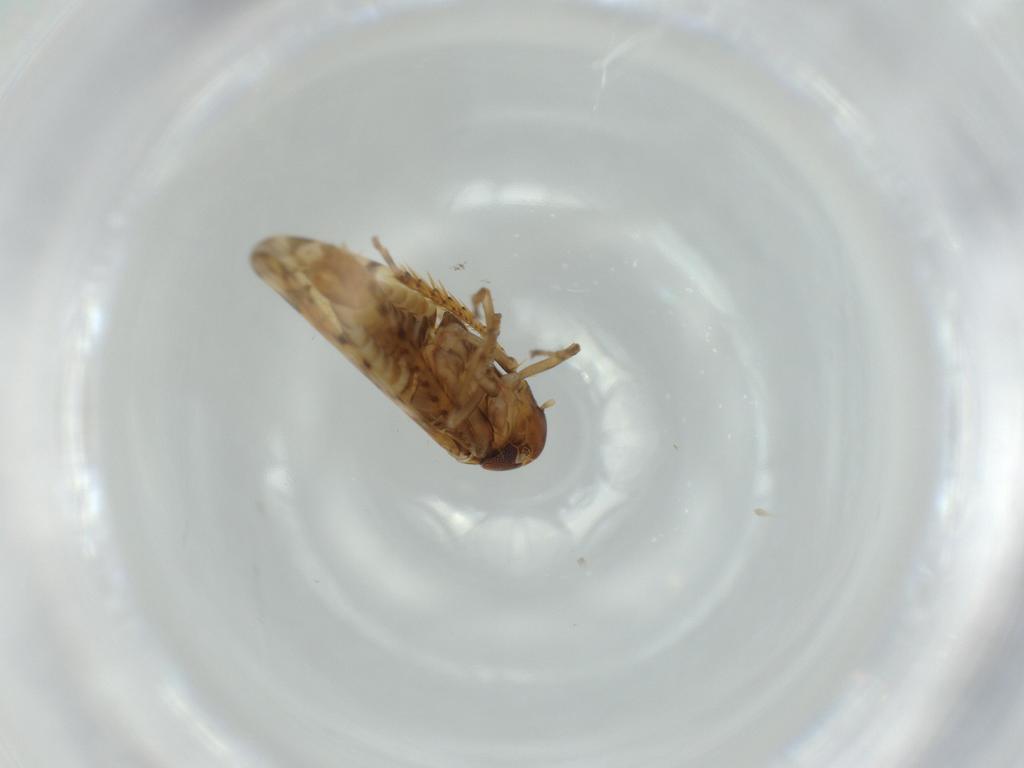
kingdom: Animalia
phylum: Arthropoda
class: Insecta
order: Hemiptera
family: Cicadellidae
